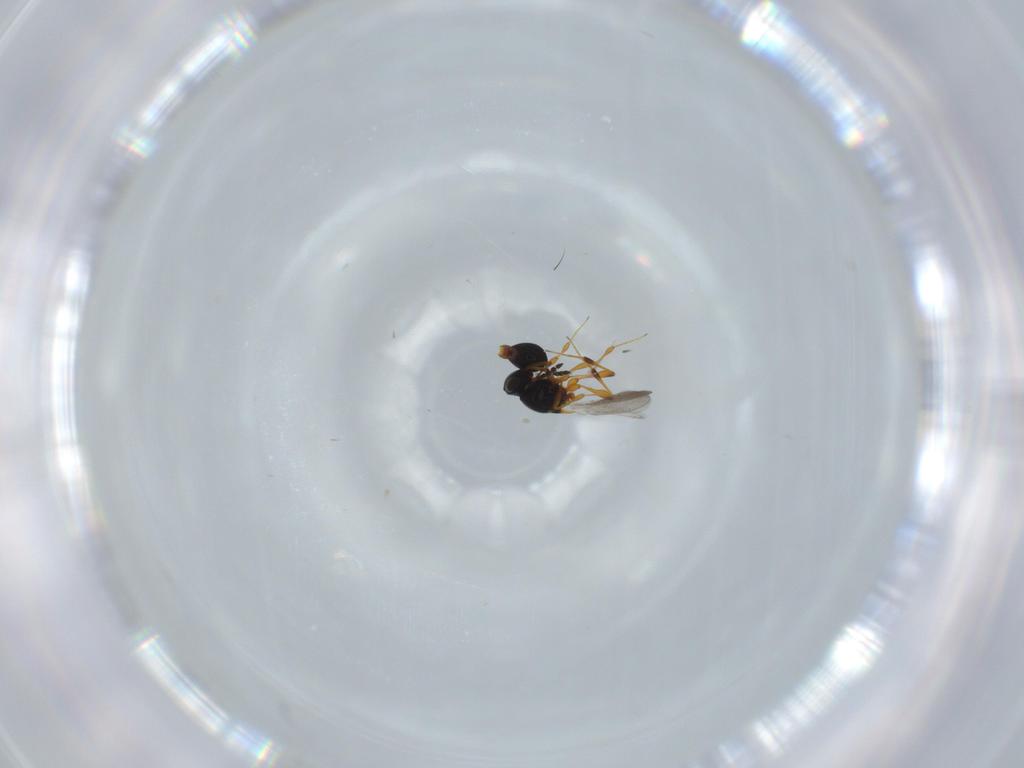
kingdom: Animalia
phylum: Arthropoda
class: Insecta
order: Hymenoptera
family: Platygastridae
